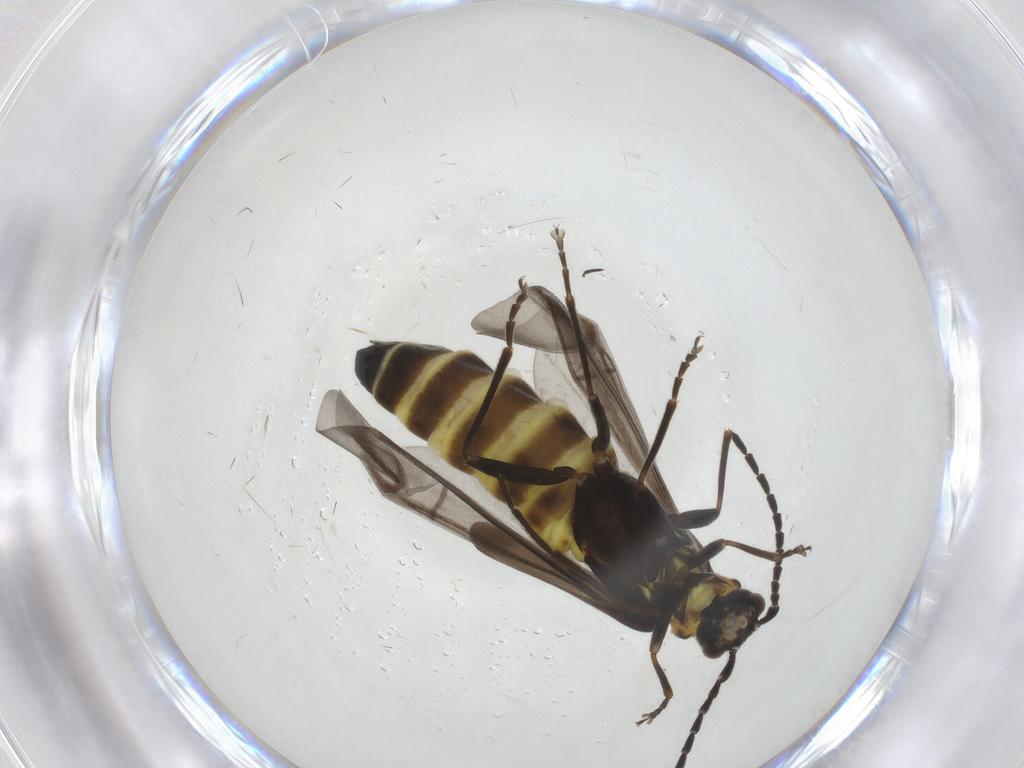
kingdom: Animalia
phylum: Arthropoda
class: Insecta
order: Coleoptera
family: Cantharidae
